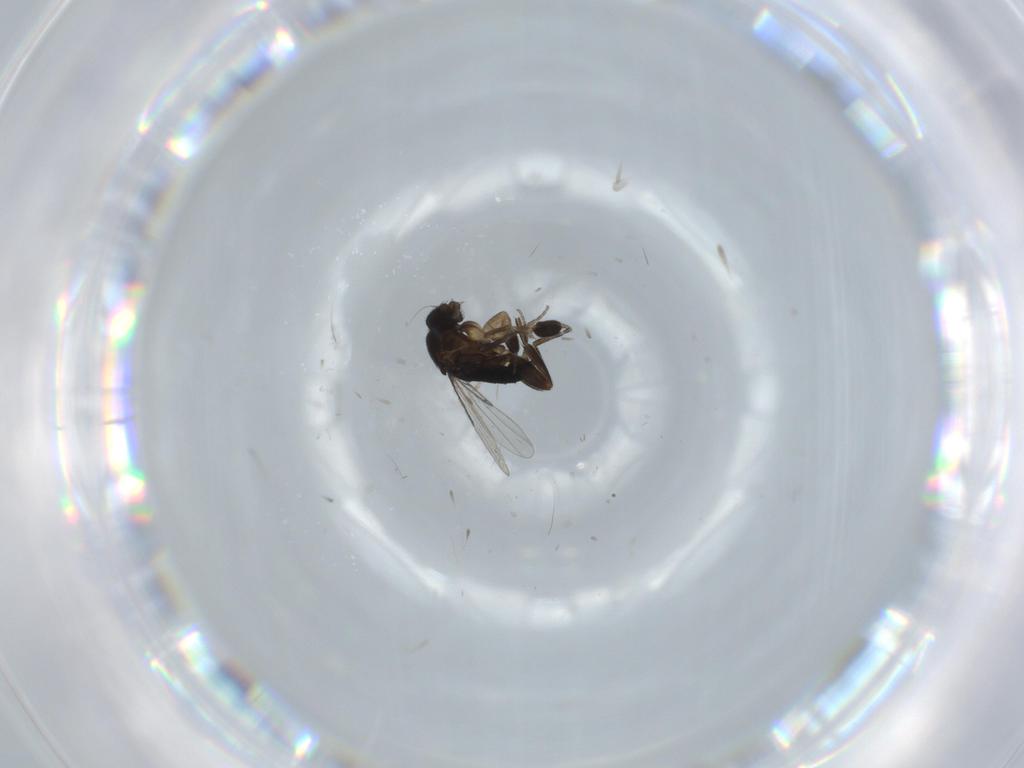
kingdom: Animalia
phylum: Arthropoda
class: Insecta
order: Diptera
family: Phoridae
